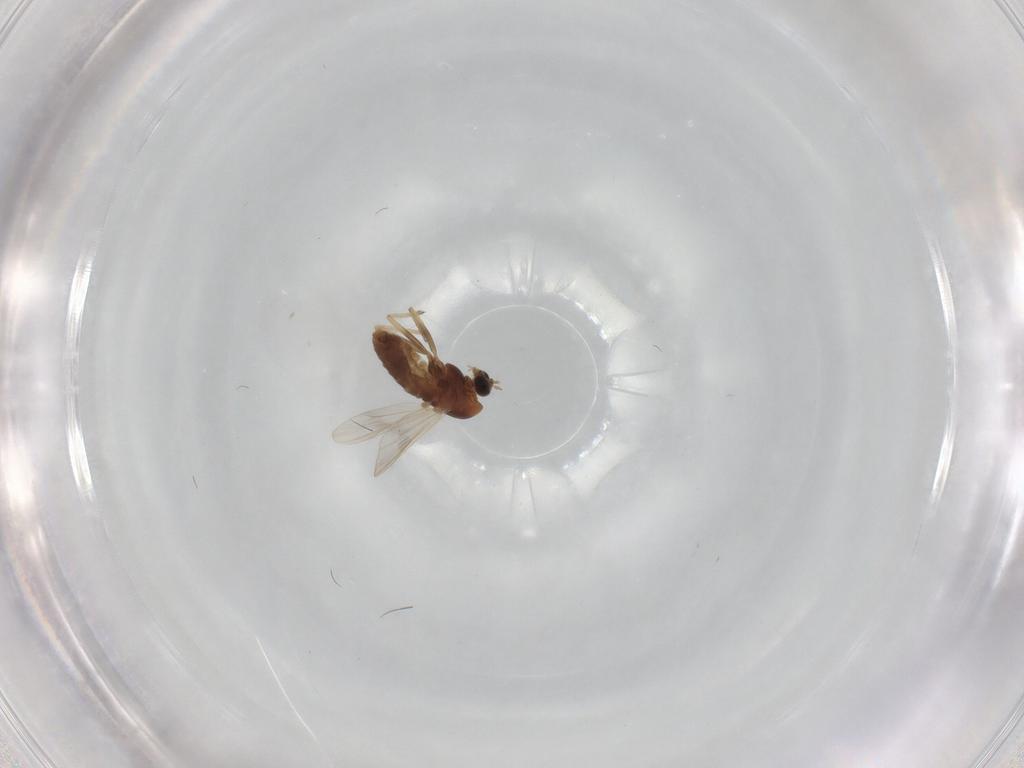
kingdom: Animalia
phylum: Arthropoda
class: Insecta
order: Diptera
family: Chironomidae
